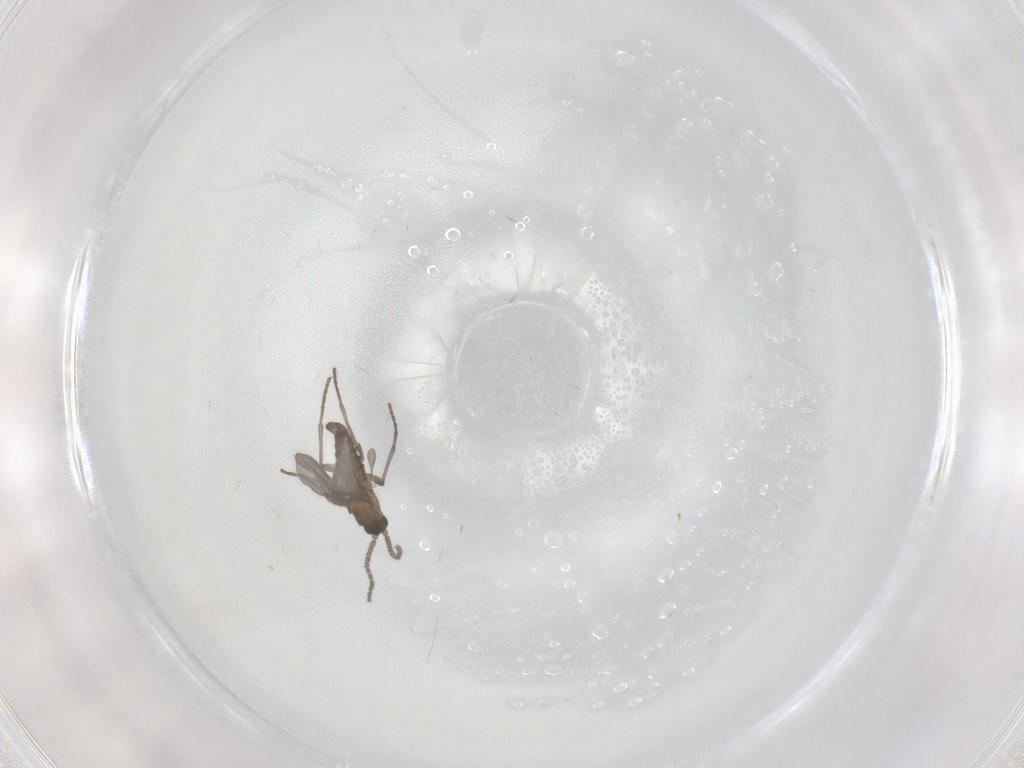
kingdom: Animalia
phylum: Arthropoda
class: Insecta
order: Diptera
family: Sciaridae
